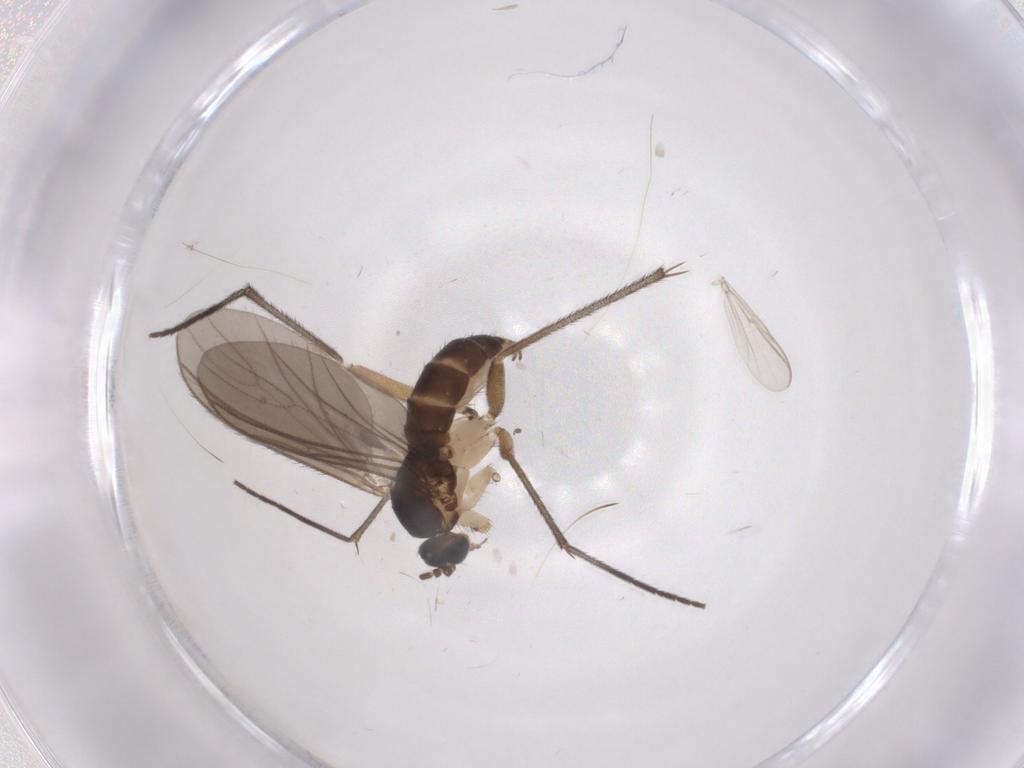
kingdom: Animalia
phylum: Arthropoda
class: Insecta
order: Diptera
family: Sciaridae
